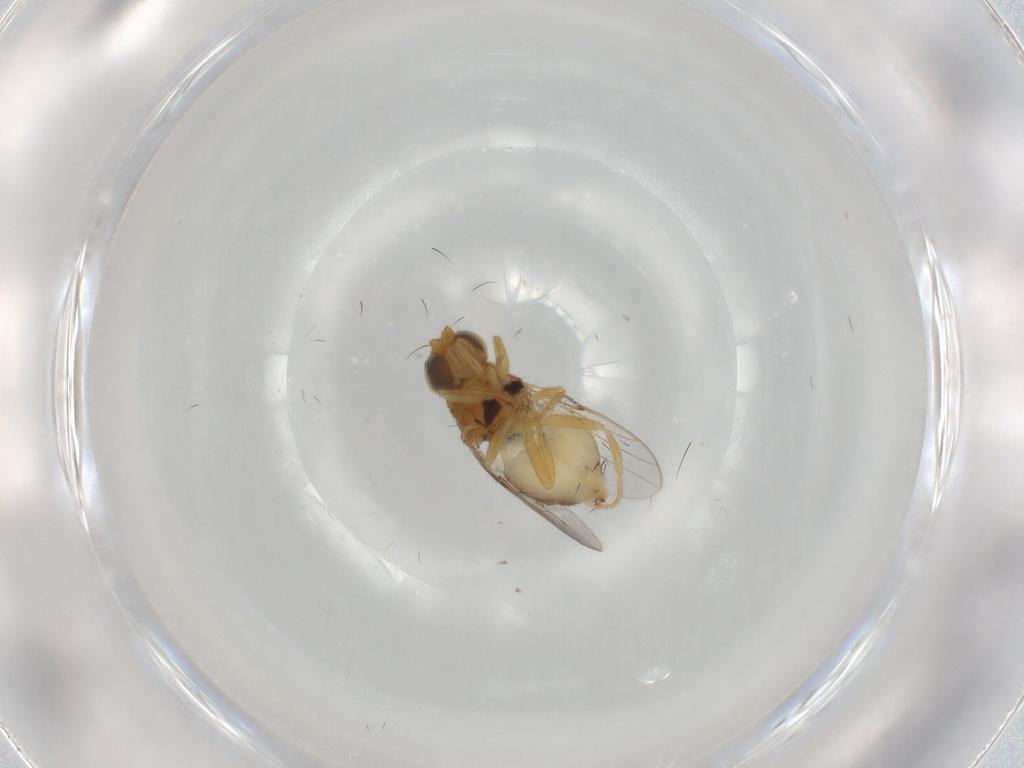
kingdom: Animalia
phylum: Arthropoda
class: Insecta
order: Diptera
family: Chloropidae
